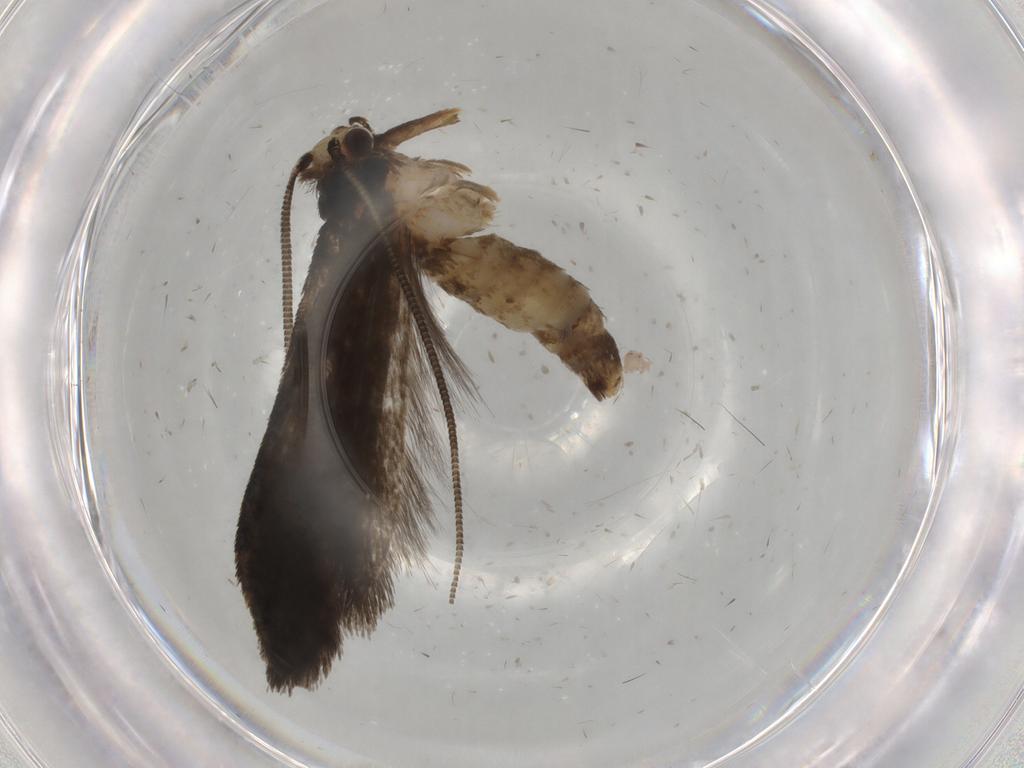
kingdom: Animalia
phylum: Arthropoda
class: Insecta
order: Lepidoptera
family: Tineidae
